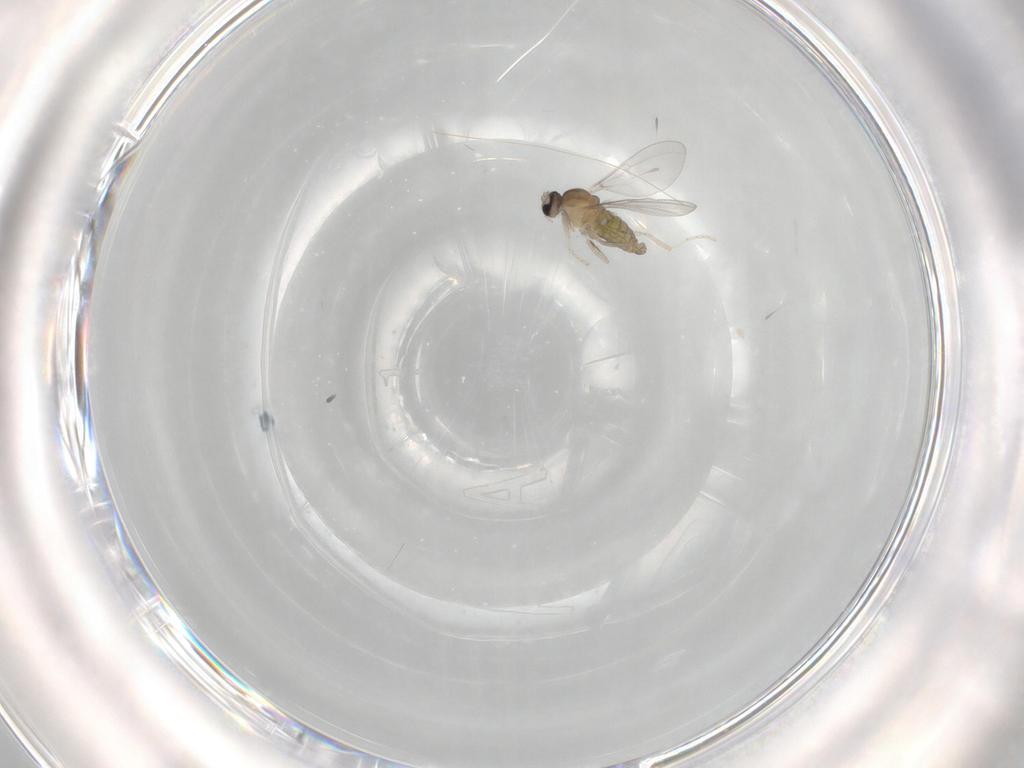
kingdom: Animalia
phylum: Arthropoda
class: Insecta
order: Diptera
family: Cecidomyiidae
